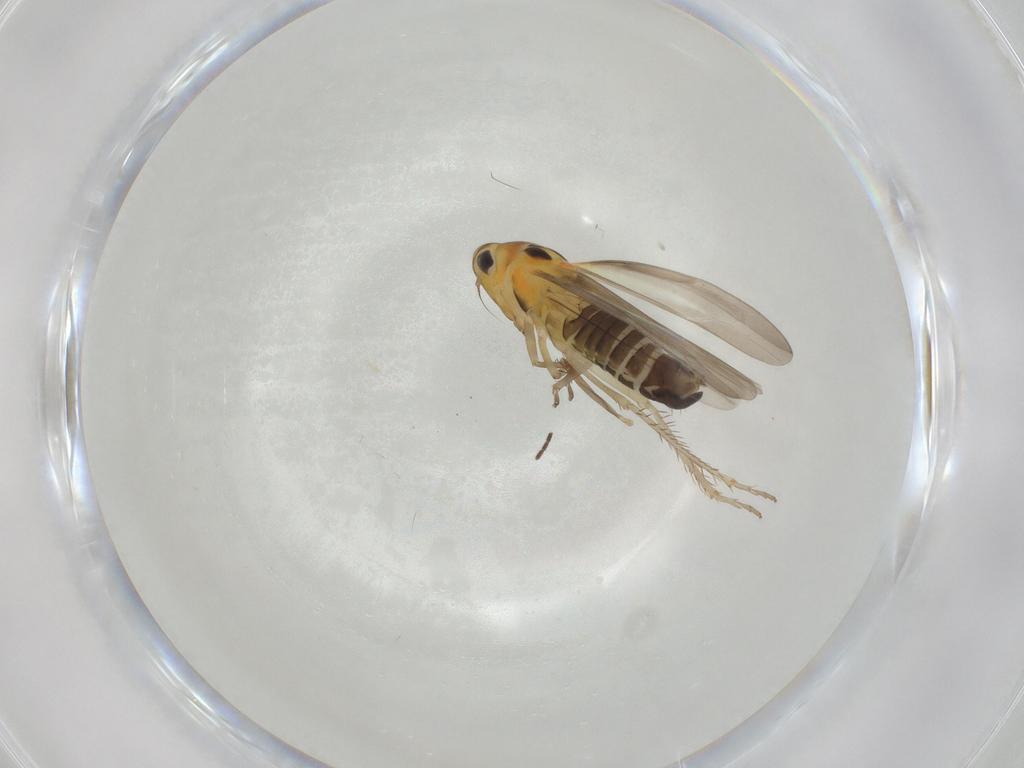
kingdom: Animalia
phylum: Arthropoda
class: Insecta
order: Hemiptera
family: Cicadellidae
